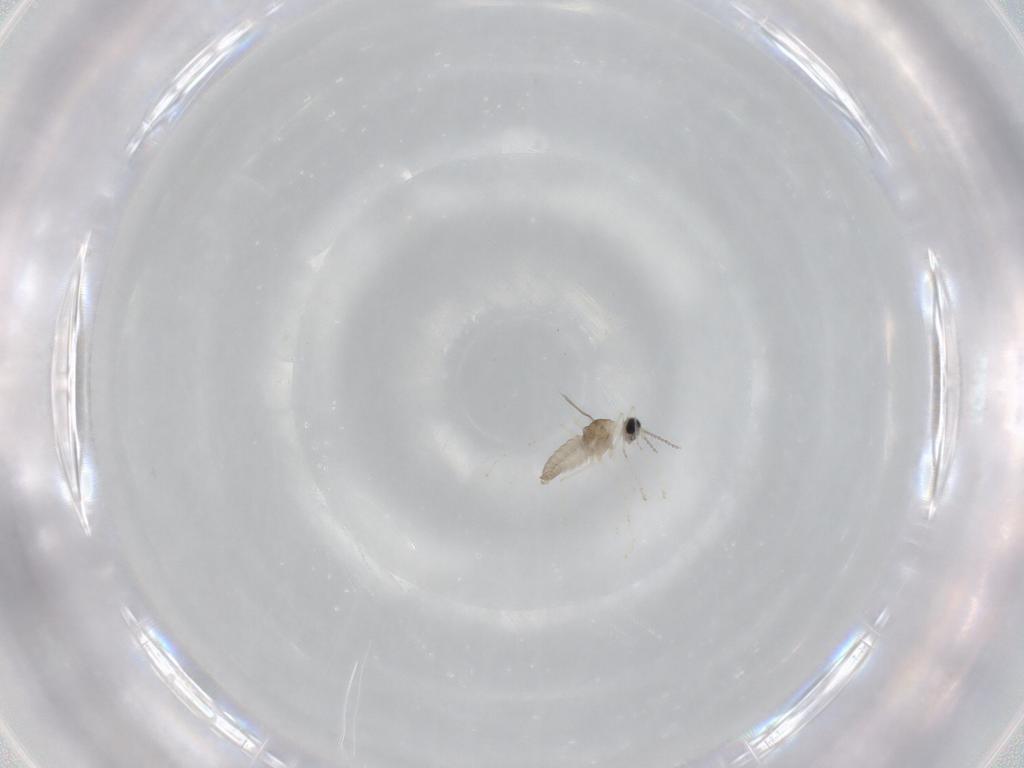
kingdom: Animalia
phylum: Arthropoda
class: Insecta
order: Diptera
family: Cecidomyiidae
